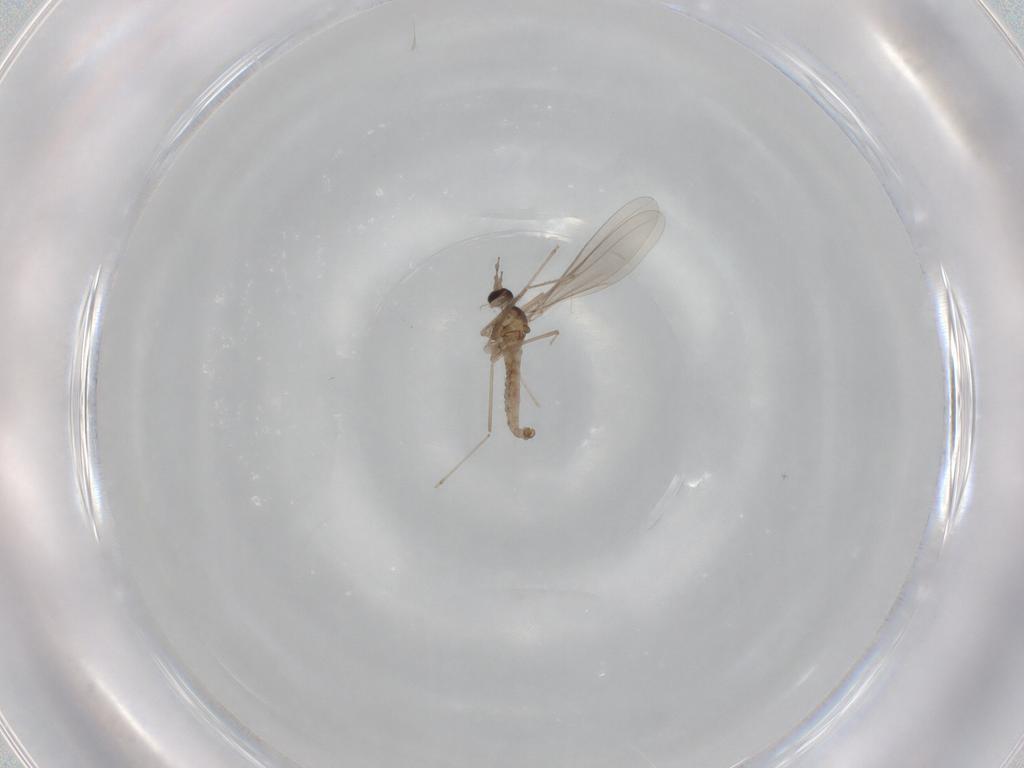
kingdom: Animalia
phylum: Arthropoda
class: Insecta
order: Diptera
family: Cecidomyiidae
